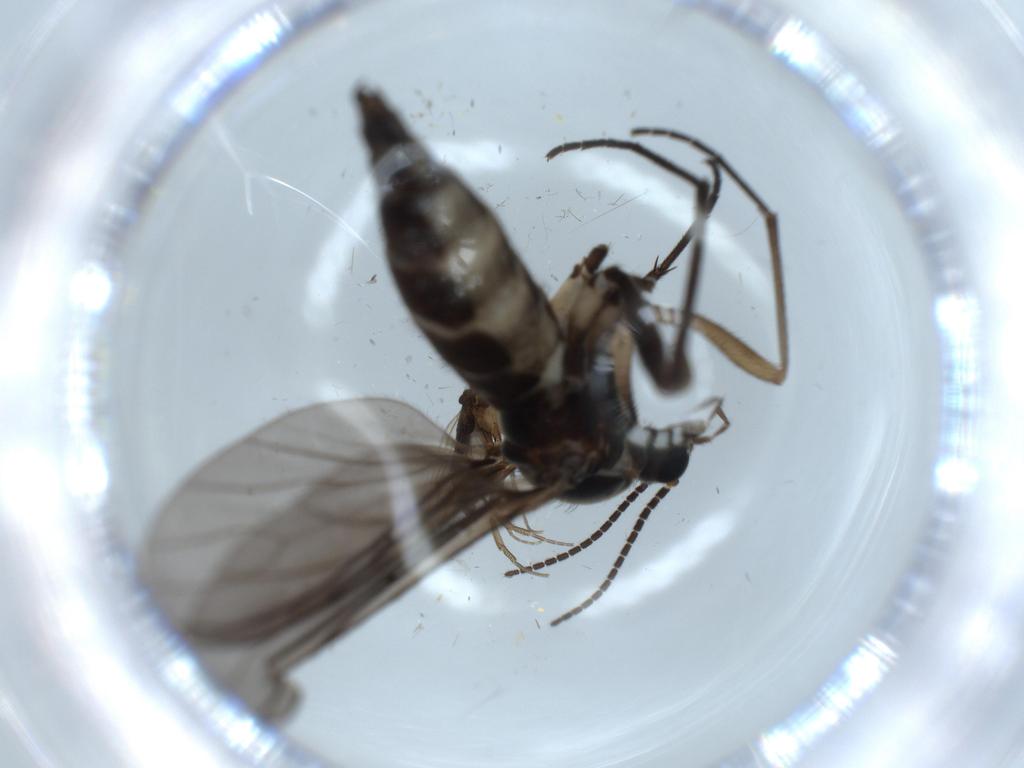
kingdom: Animalia
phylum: Arthropoda
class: Insecta
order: Diptera
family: Sciaridae
